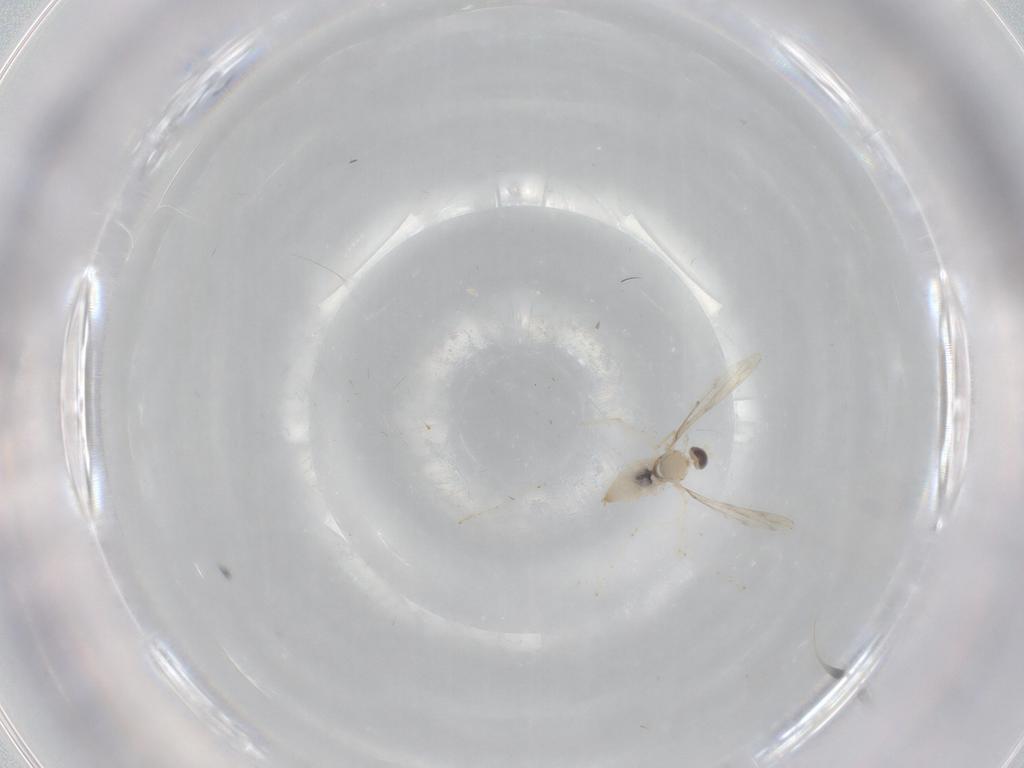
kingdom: Animalia
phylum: Arthropoda
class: Insecta
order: Diptera
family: Cecidomyiidae
